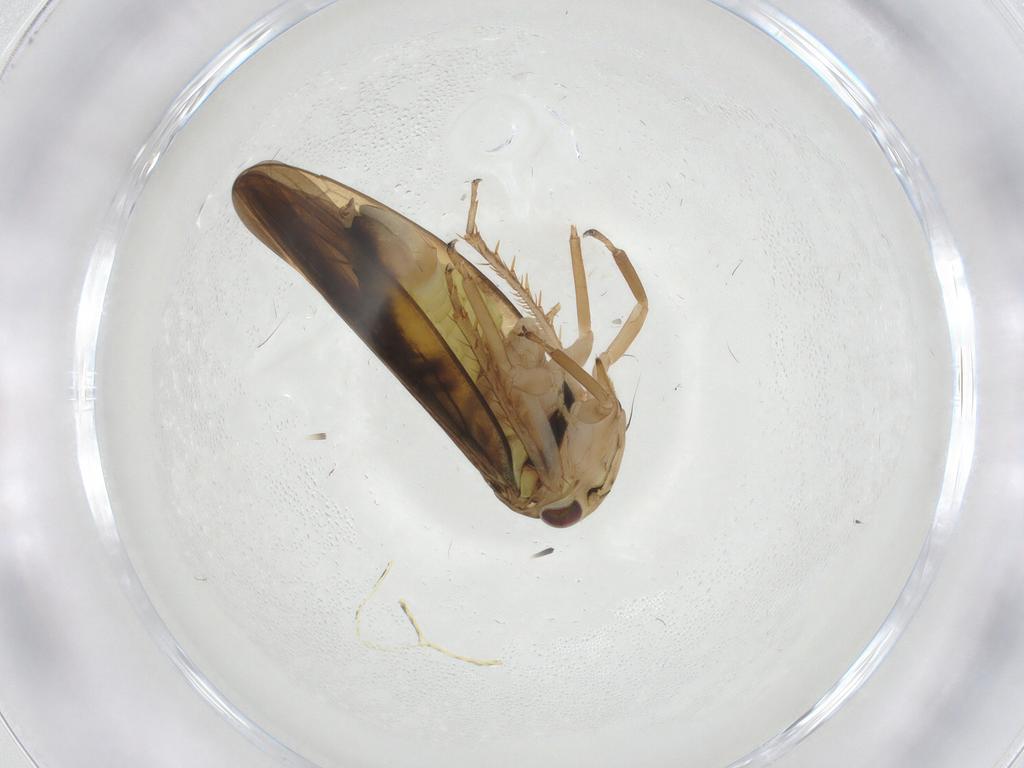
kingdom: Animalia
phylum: Arthropoda
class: Insecta
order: Hemiptera
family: Cicadellidae
